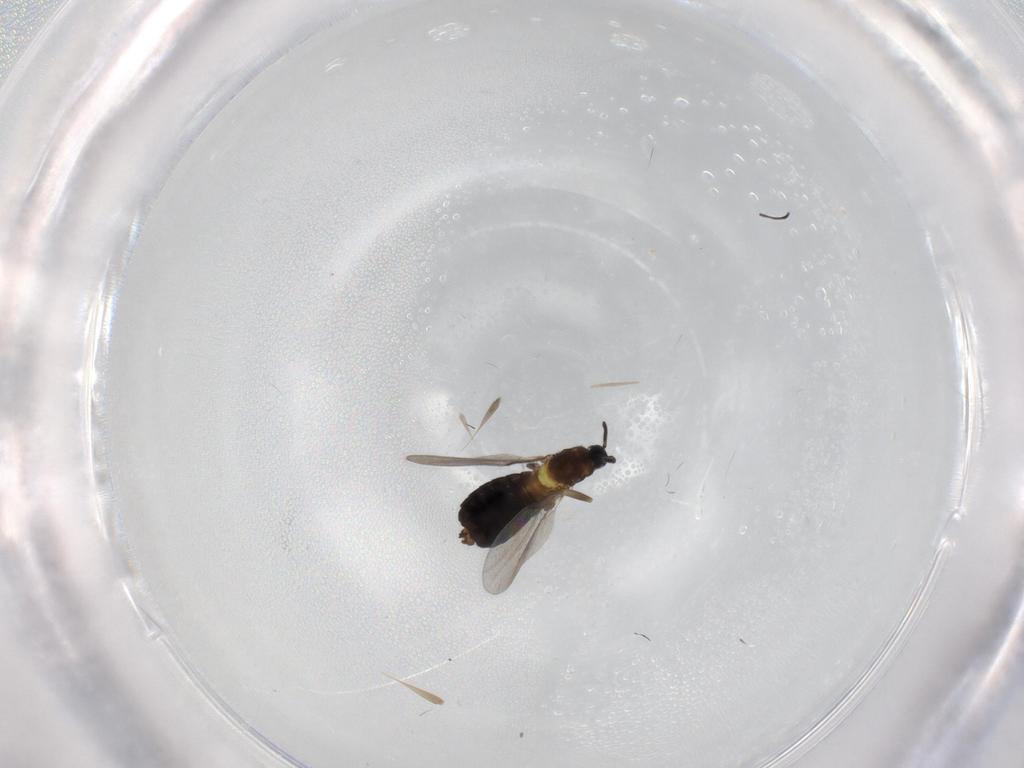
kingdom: Animalia
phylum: Arthropoda
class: Insecta
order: Diptera
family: Scatopsidae
